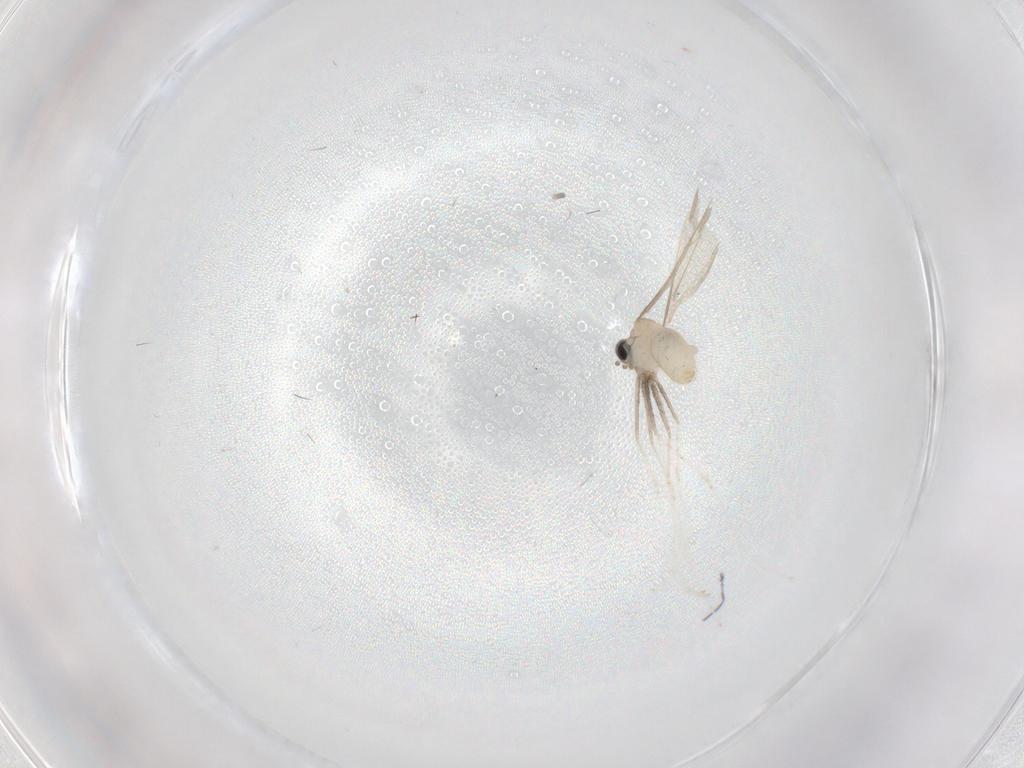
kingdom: Animalia
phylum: Arthropoda
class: Insecta
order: Diptera
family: Cecidomyiidae
